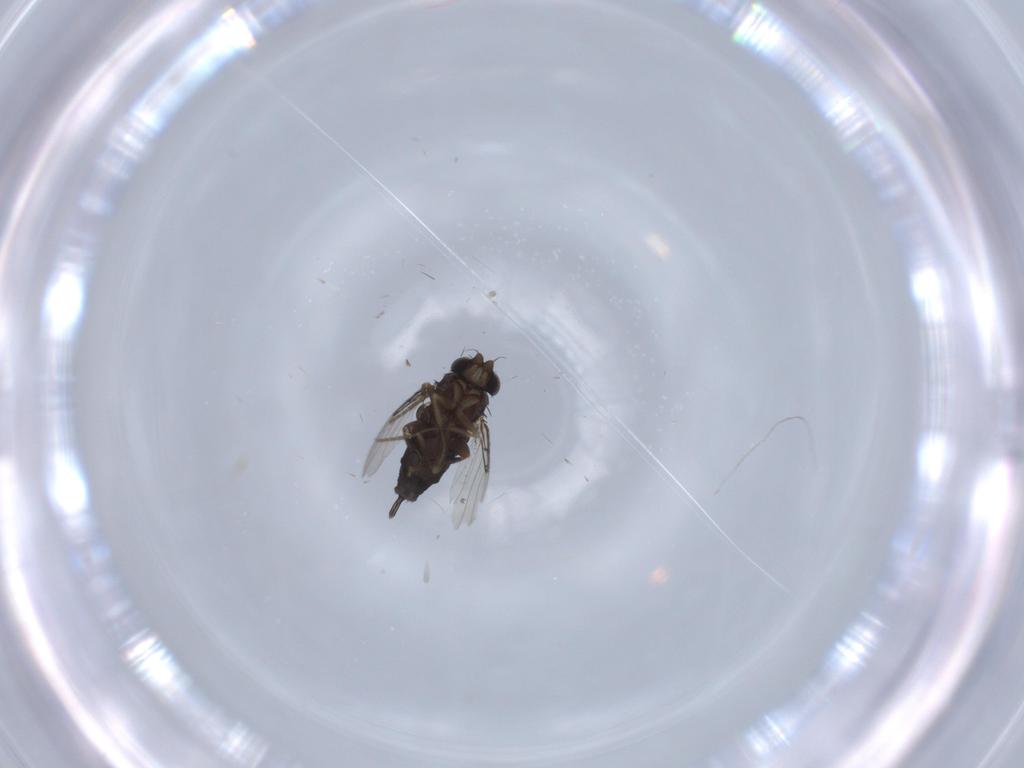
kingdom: Animalia
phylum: Arthropoda
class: Insecta
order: Diptera
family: Phoridae
